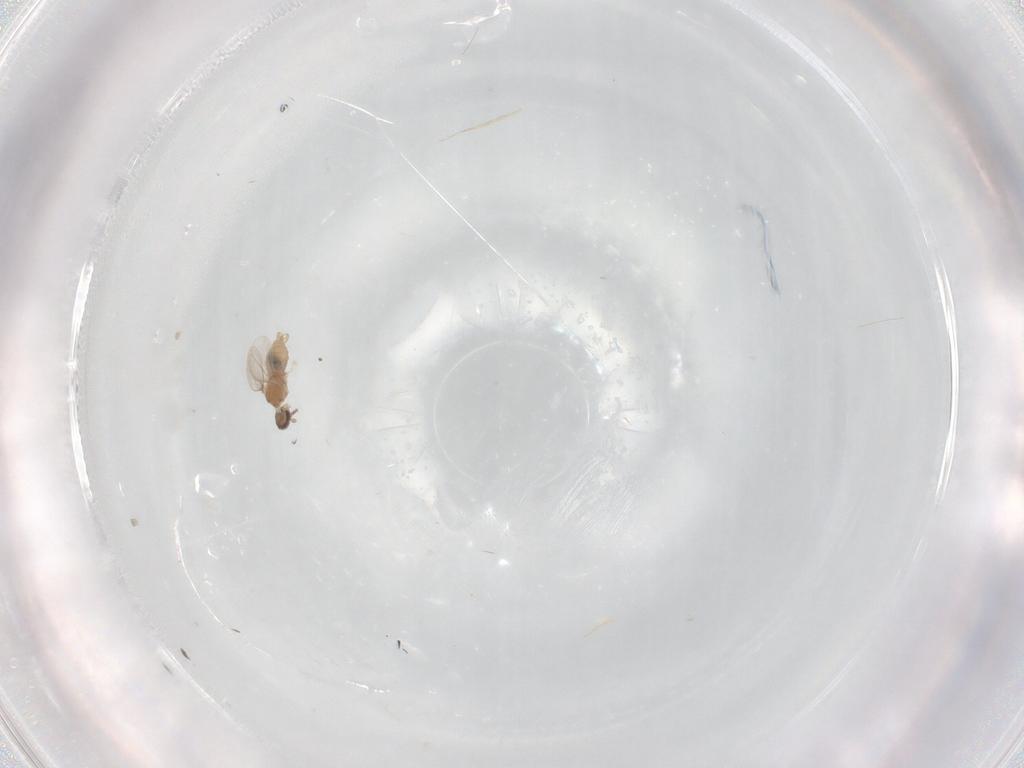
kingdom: Animalia
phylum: Arthropoda
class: Insecta
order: Diptera
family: Cecidomyiidae
